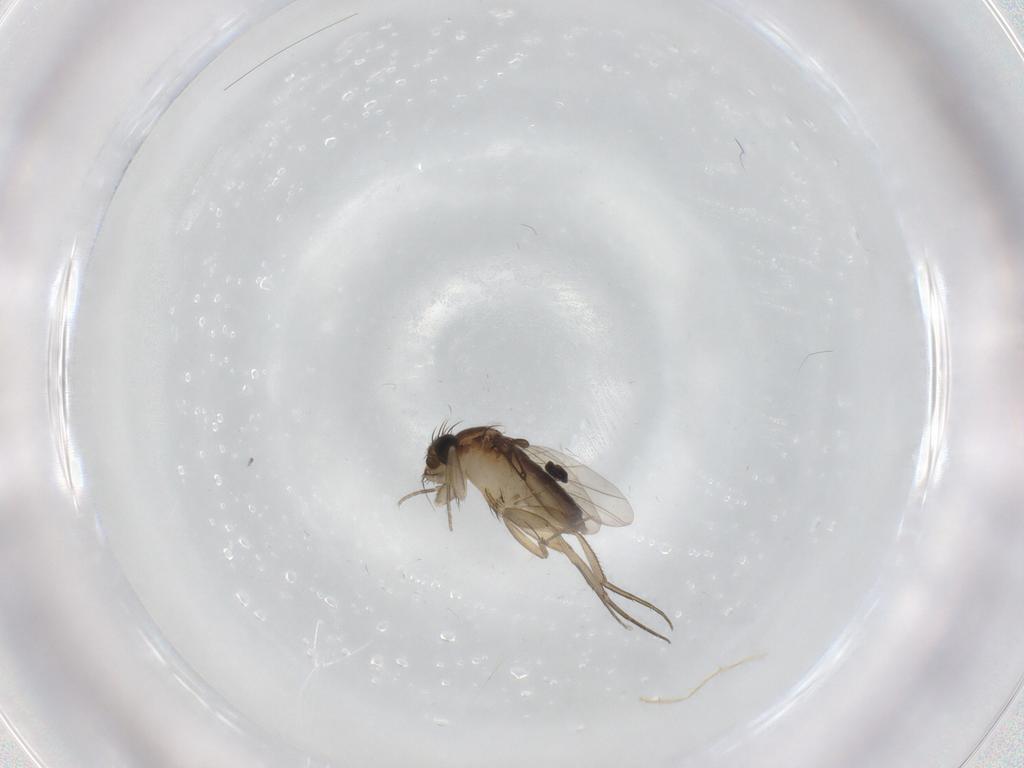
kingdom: Animalia
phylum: Arthropoda
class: Insecta
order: Diptera
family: Phoridae
